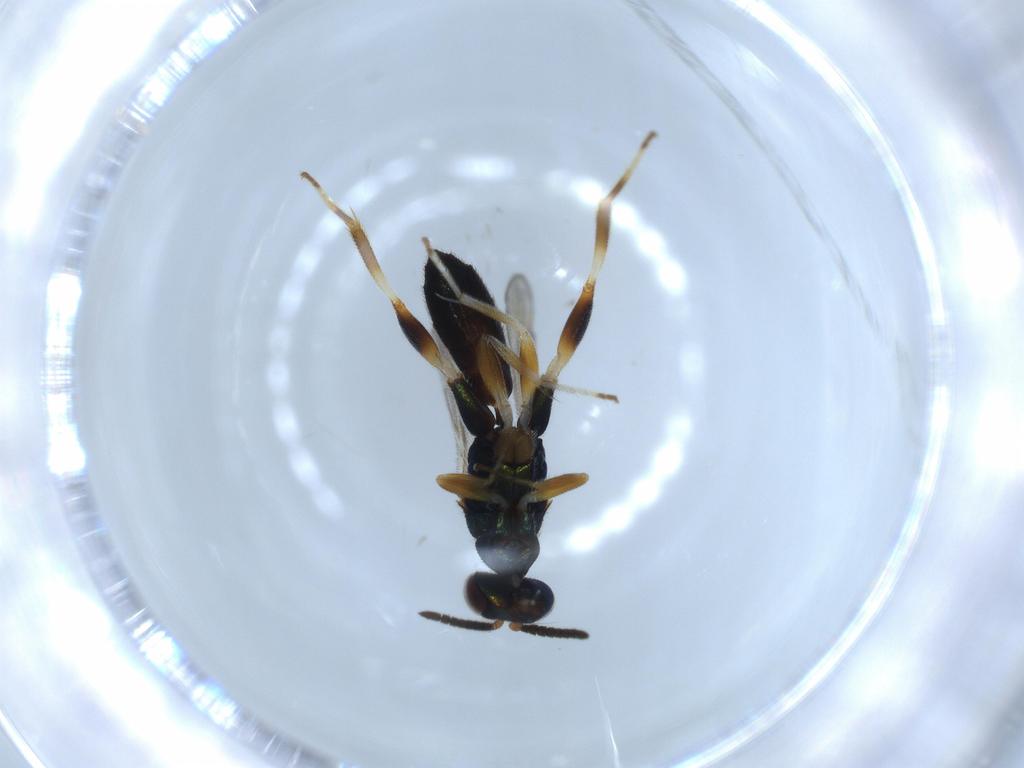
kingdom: Animalia
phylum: Arthropoda
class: Insecta
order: Hymenoptera
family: Cleonyminae
